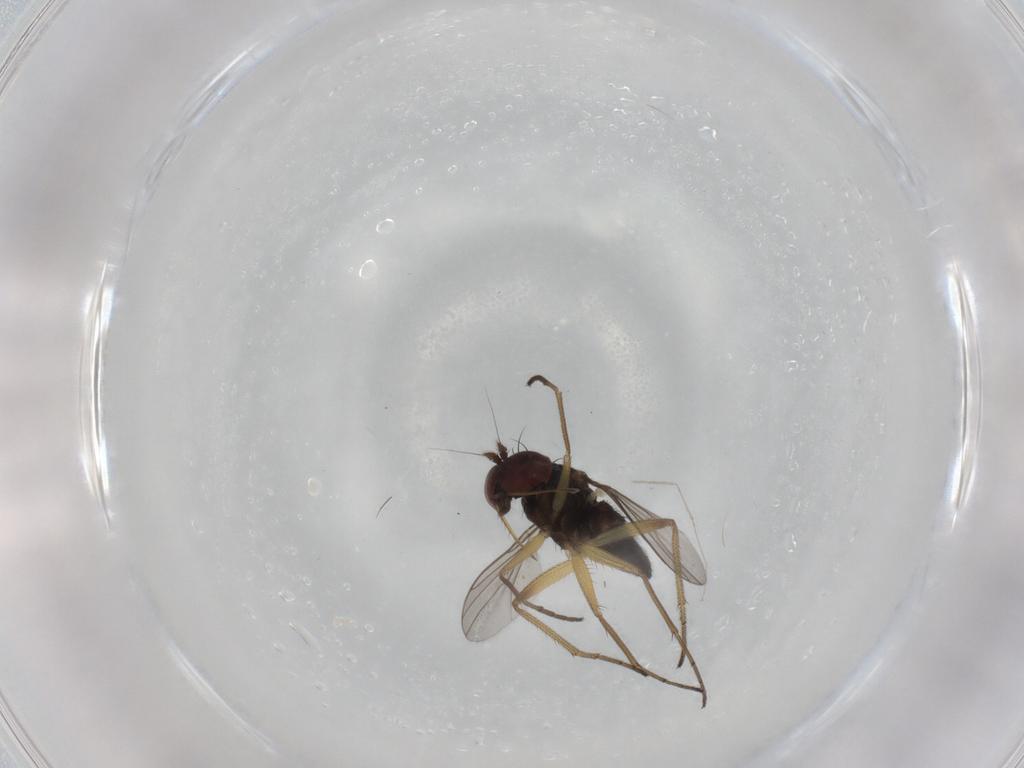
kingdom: Animalia
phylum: Arthropoda
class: Insecta
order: Diptera
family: Dolichopodidae
